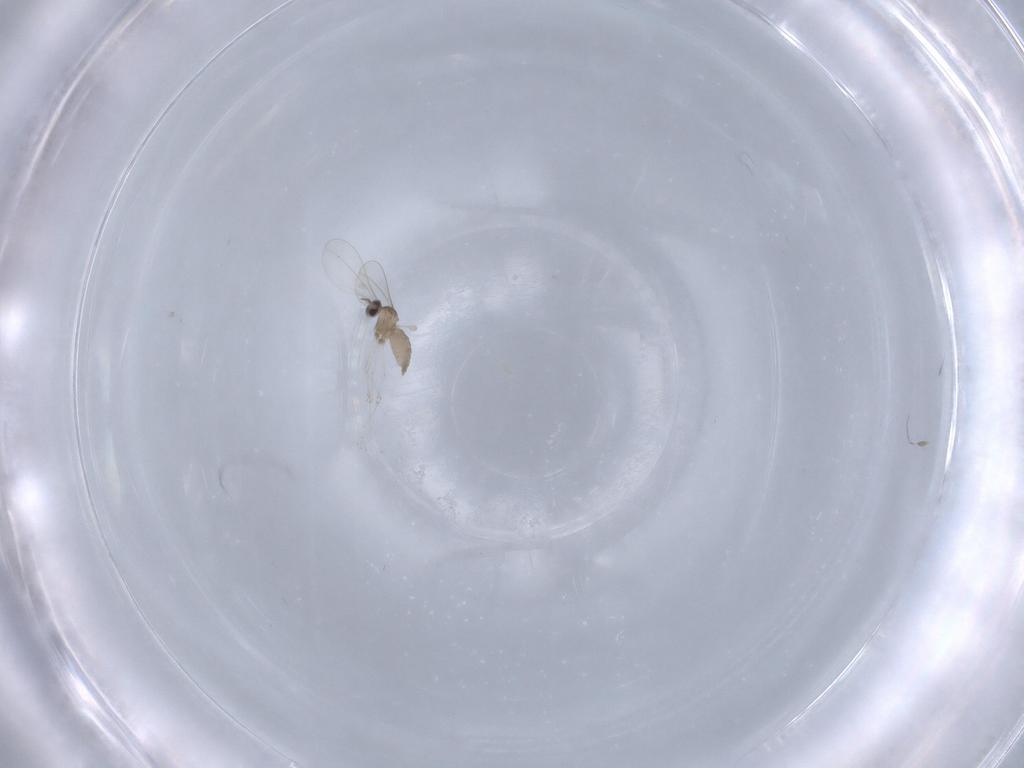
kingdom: Animalia
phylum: Arthropoda
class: Insecta
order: Diptera
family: Cecidomyiidae
